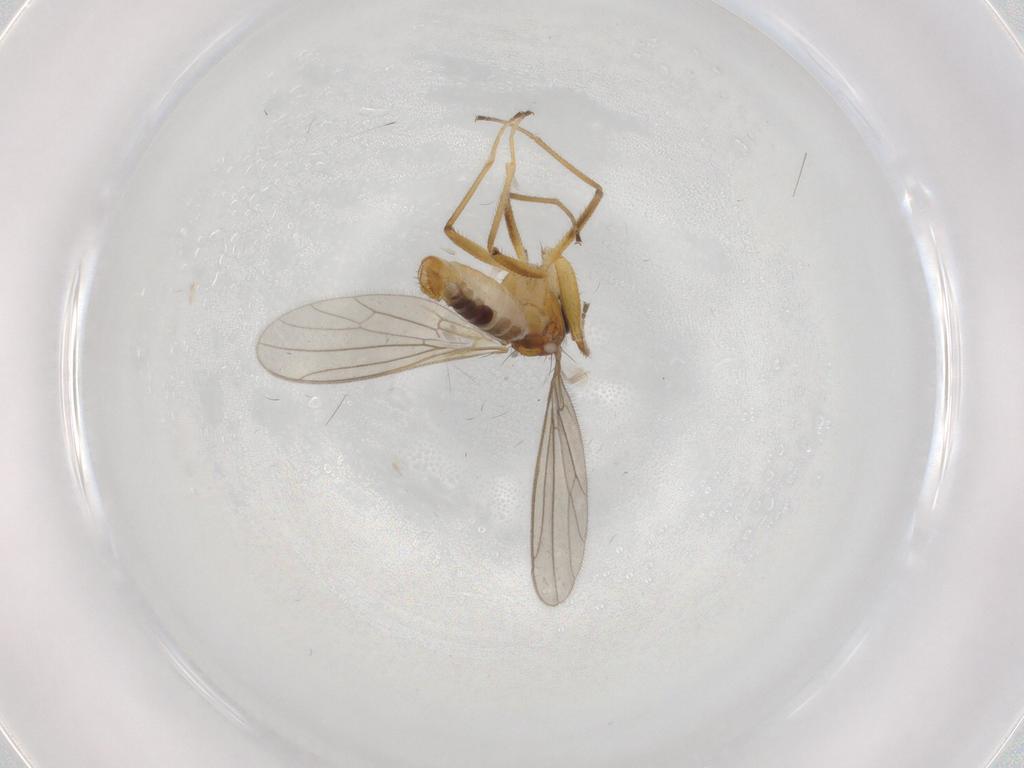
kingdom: Animalia
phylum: Arthropoda
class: Insecta
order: Diptera
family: Empididae
